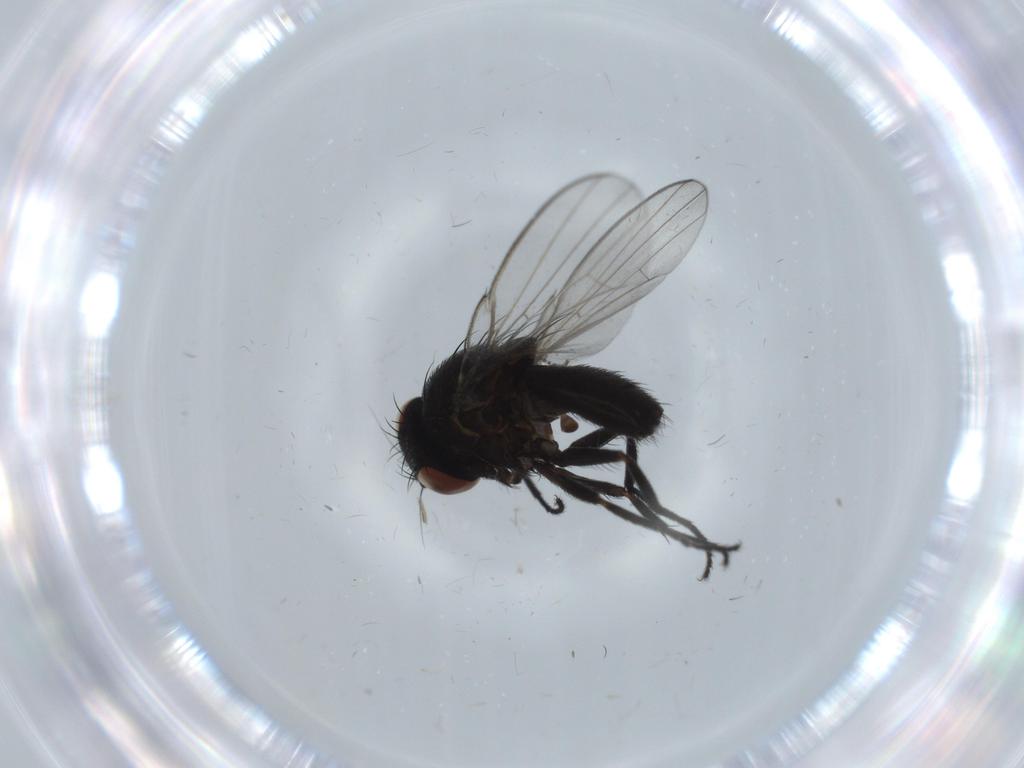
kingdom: Animalia
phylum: Arthropoda
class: Insecta
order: Diptera
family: Milichiidae
